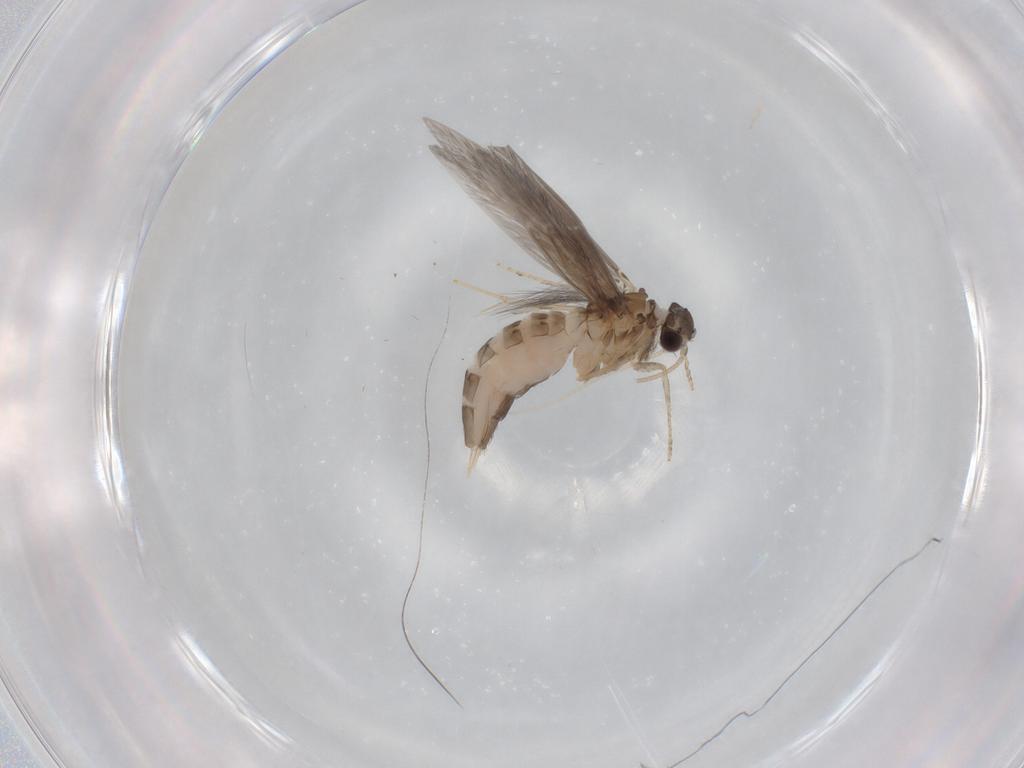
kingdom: Animalia
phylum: Arthropoda
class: Insecta
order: Trichoptera
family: Hydroptilidae
